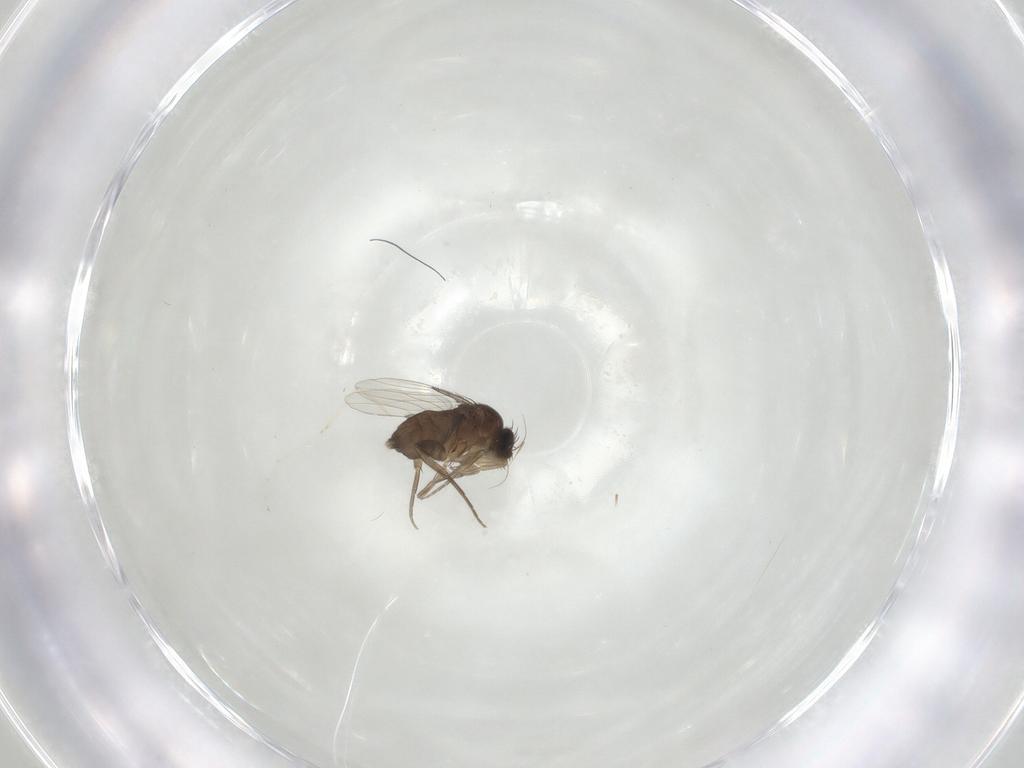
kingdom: Animalia
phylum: Arthropoda
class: Insecta
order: Diptera
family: Phoridae
